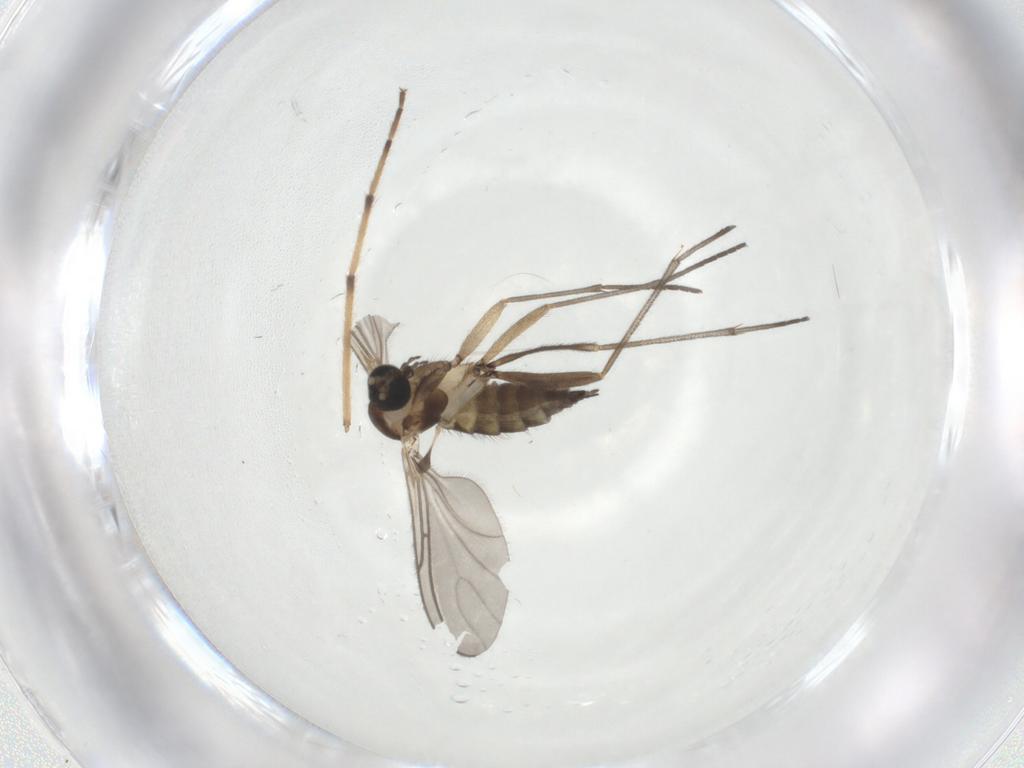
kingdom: Animalia
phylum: Arthropoda
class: Insecta
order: Diptera
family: Sciaridae
